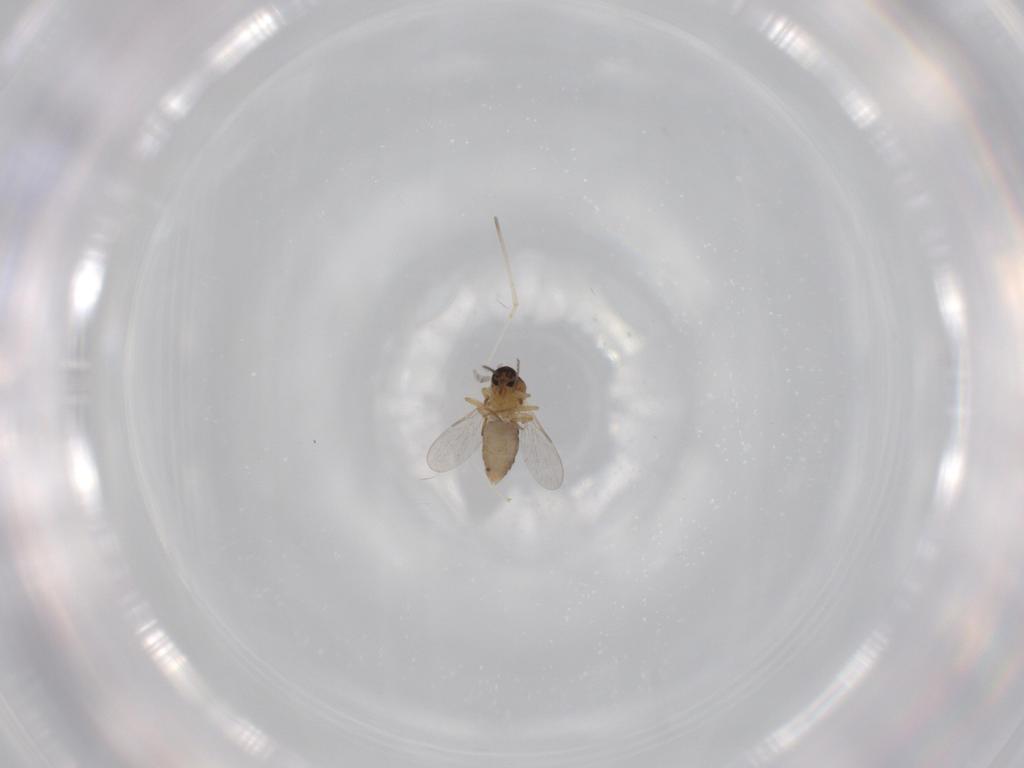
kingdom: Animalia
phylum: Arthropoda
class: Insecta
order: Diptera
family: Ceratopogonidae
